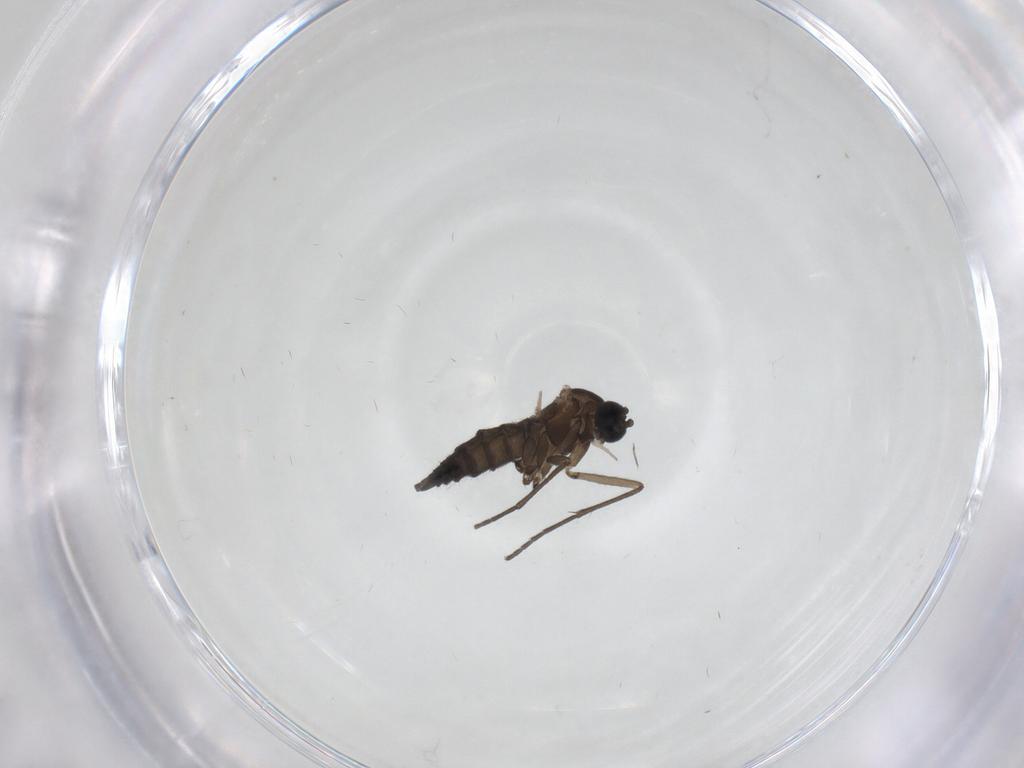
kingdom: Animalia
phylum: Arthropoda
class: Insecta
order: Diptera
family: Sciaridae
